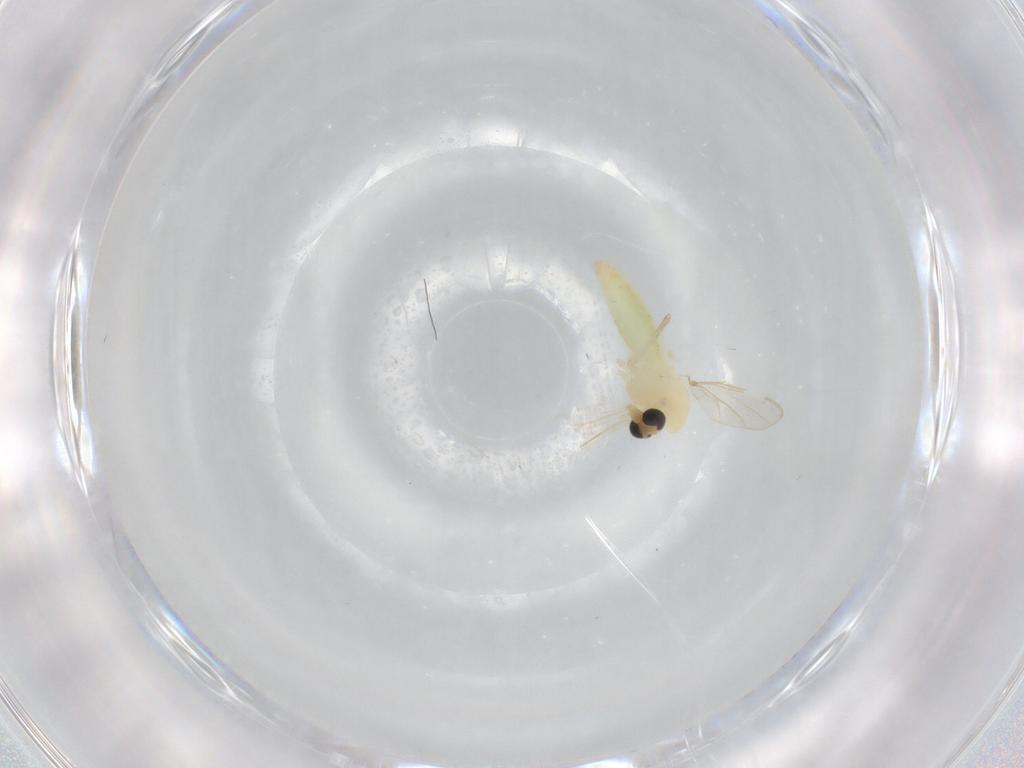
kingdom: Animalia
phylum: Arthropoda
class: Insecta
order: Diptera
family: Chironomidae
